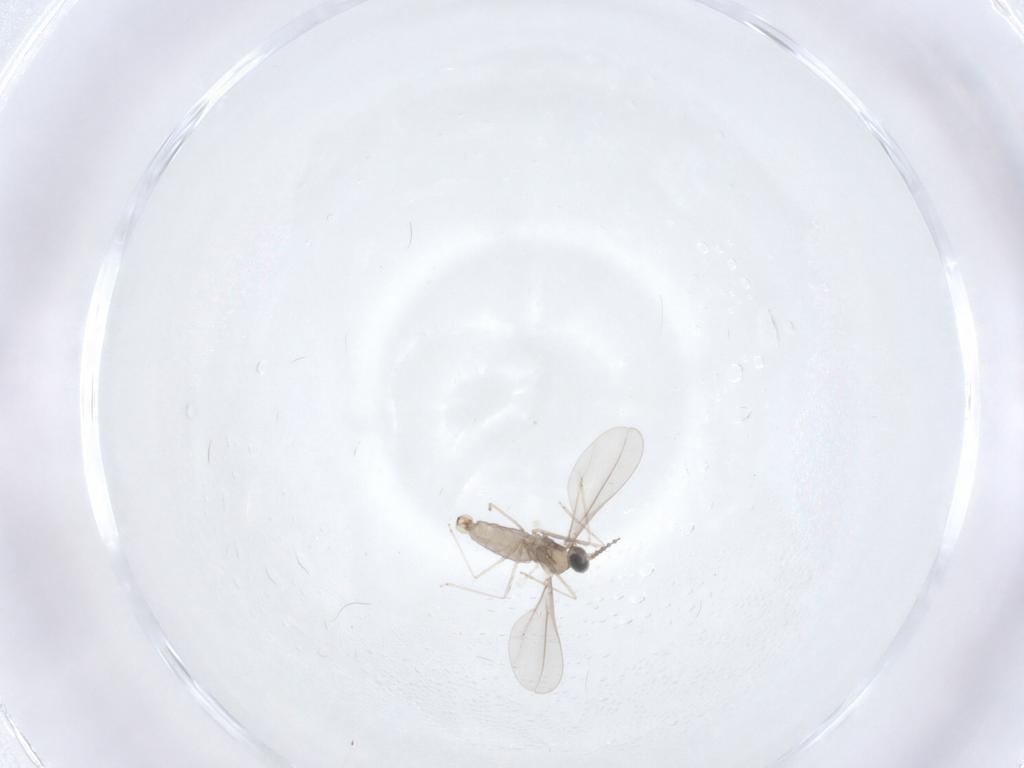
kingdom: Animalia
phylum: Arthropoda
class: Insecta
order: Diptera
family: Cecidomyiidae
